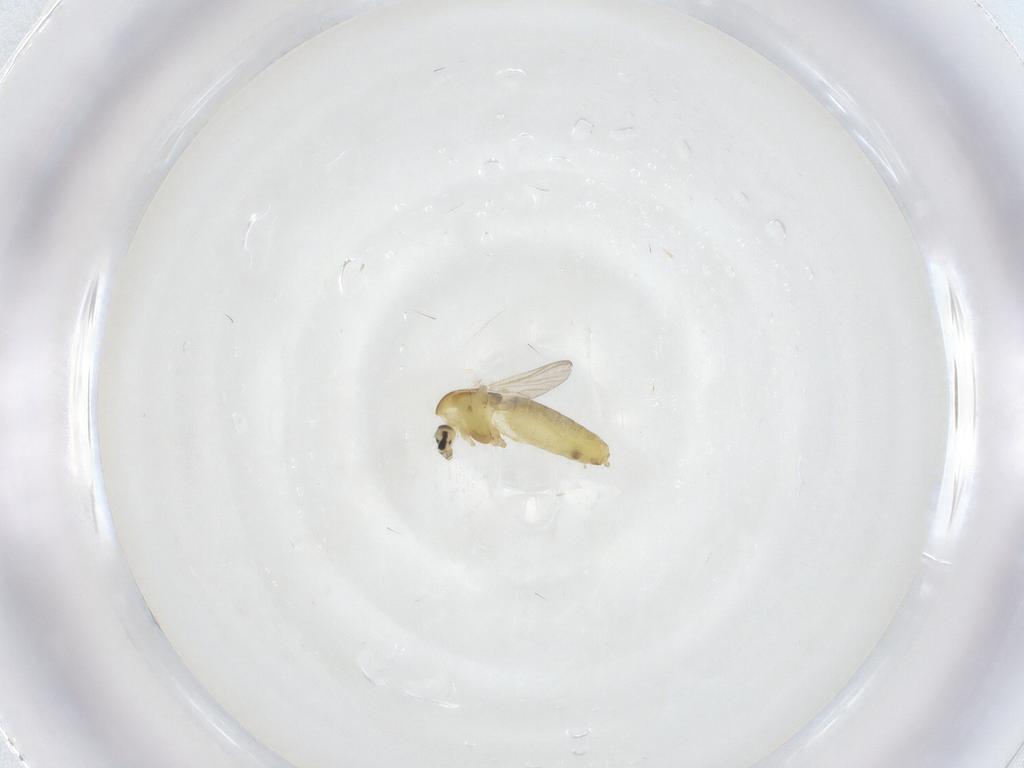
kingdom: Animalia
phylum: Arthropoda
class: Insecta
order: Diptera
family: Chironomidae
